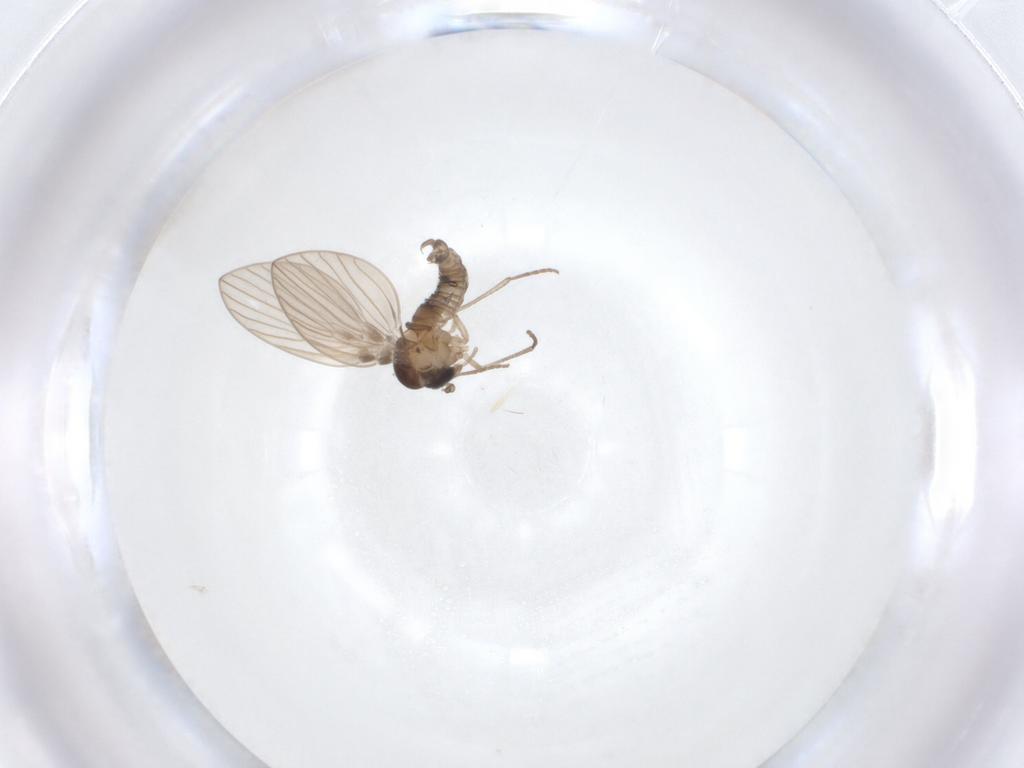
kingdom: Animalia
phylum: Arthropoda
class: Insecta
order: Diptera
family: Psychodidae
